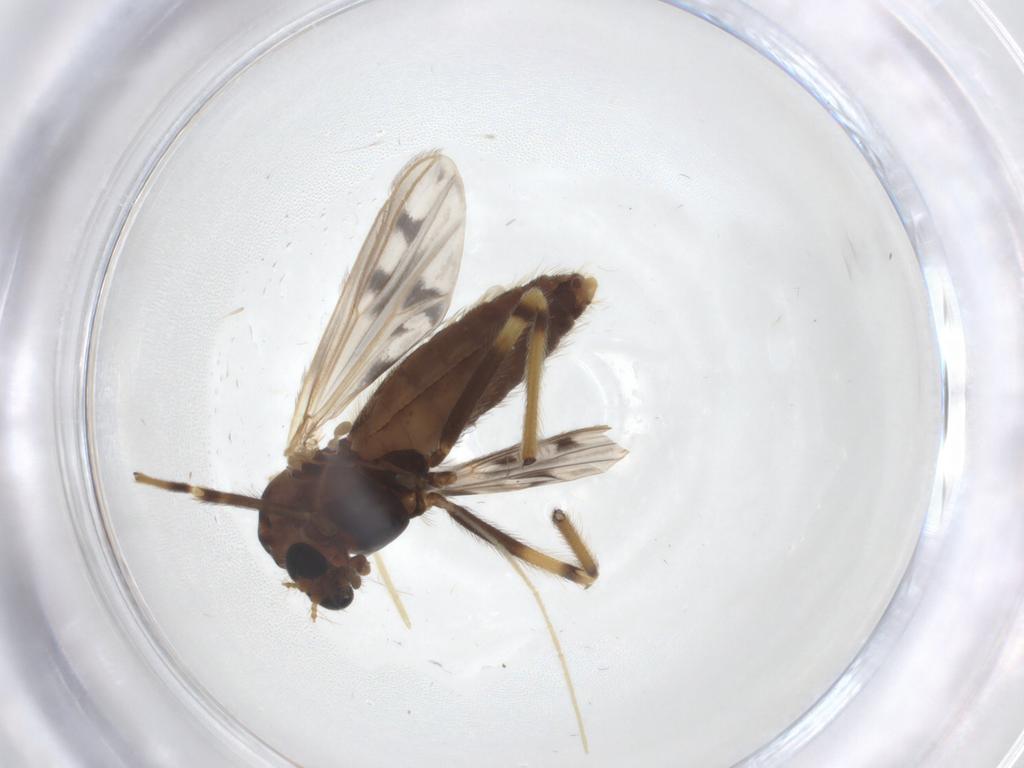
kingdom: Animalia
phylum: Arthropoda
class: Insecta
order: Diptera
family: Chironomidae
